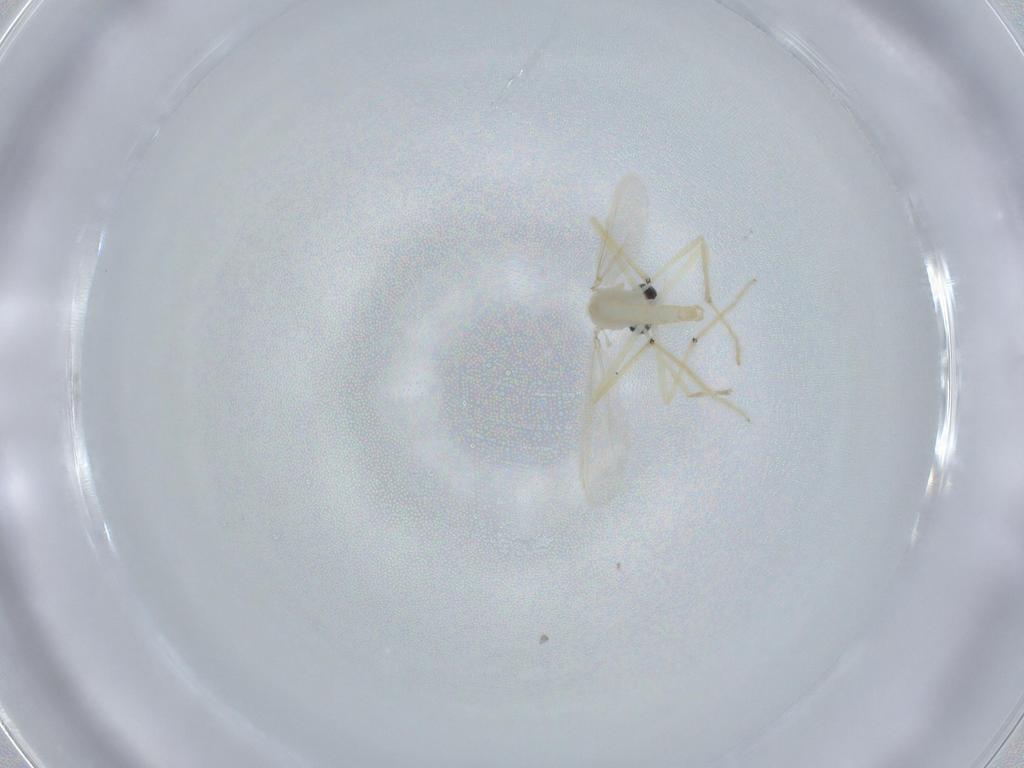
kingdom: Animalia
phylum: Arthropoda
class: Insecta
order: Diptera
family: Chironomidae
